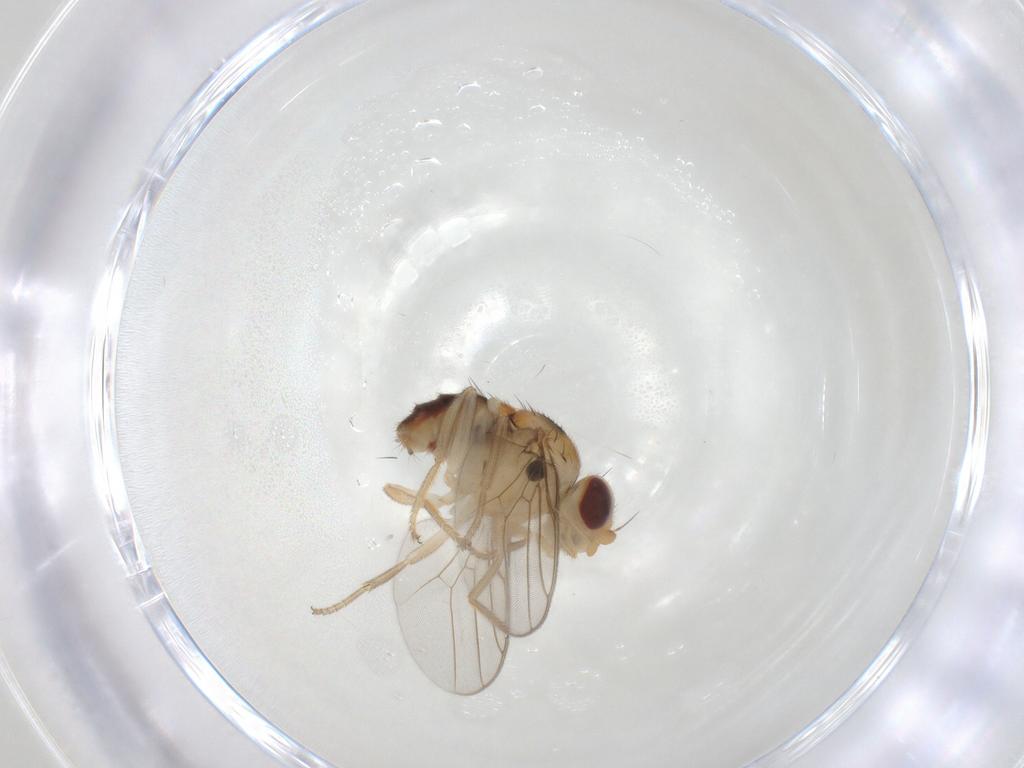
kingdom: Animalia
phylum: Arthropoda
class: Insecta
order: Diptera
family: Chloropidae
